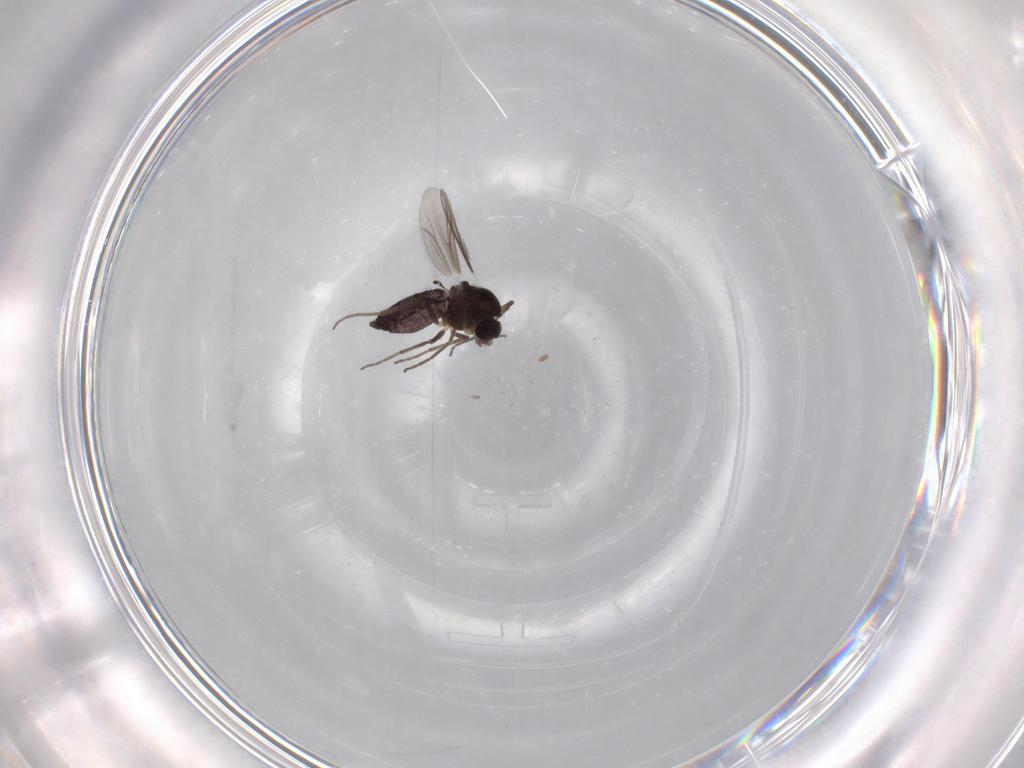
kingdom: Animalia
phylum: Arthropoda
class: Insecta
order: Diptera
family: Chironomidae
